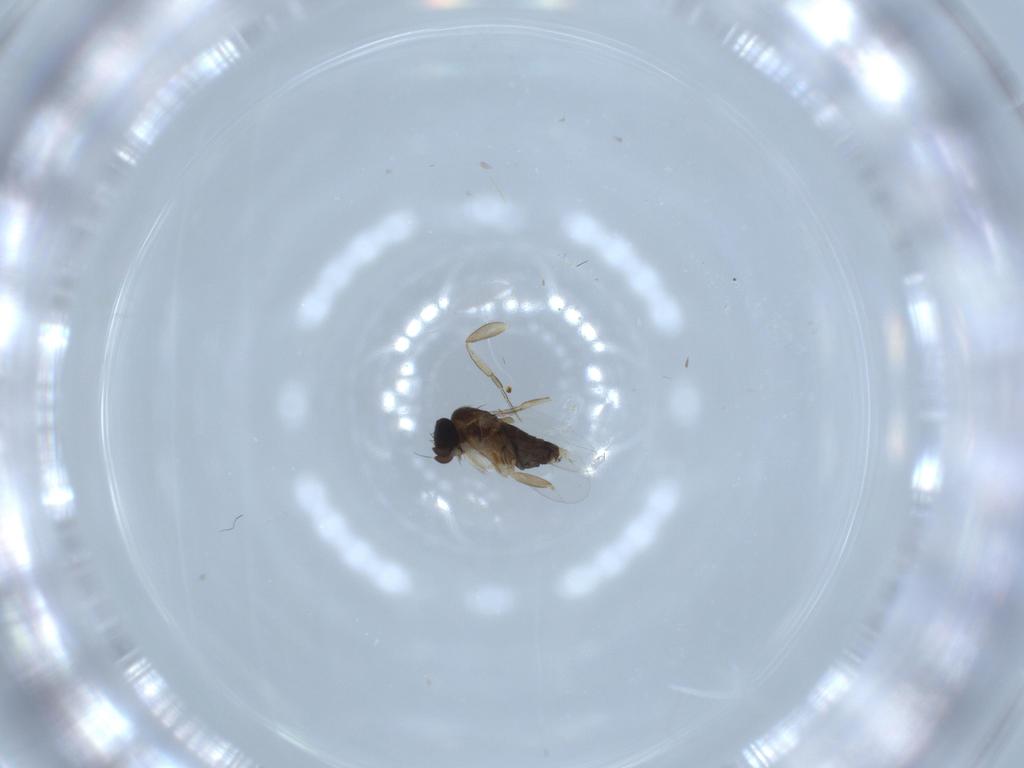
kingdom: Animalia
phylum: Arthropoda
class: Insecta
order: Diptera
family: Phoridae
